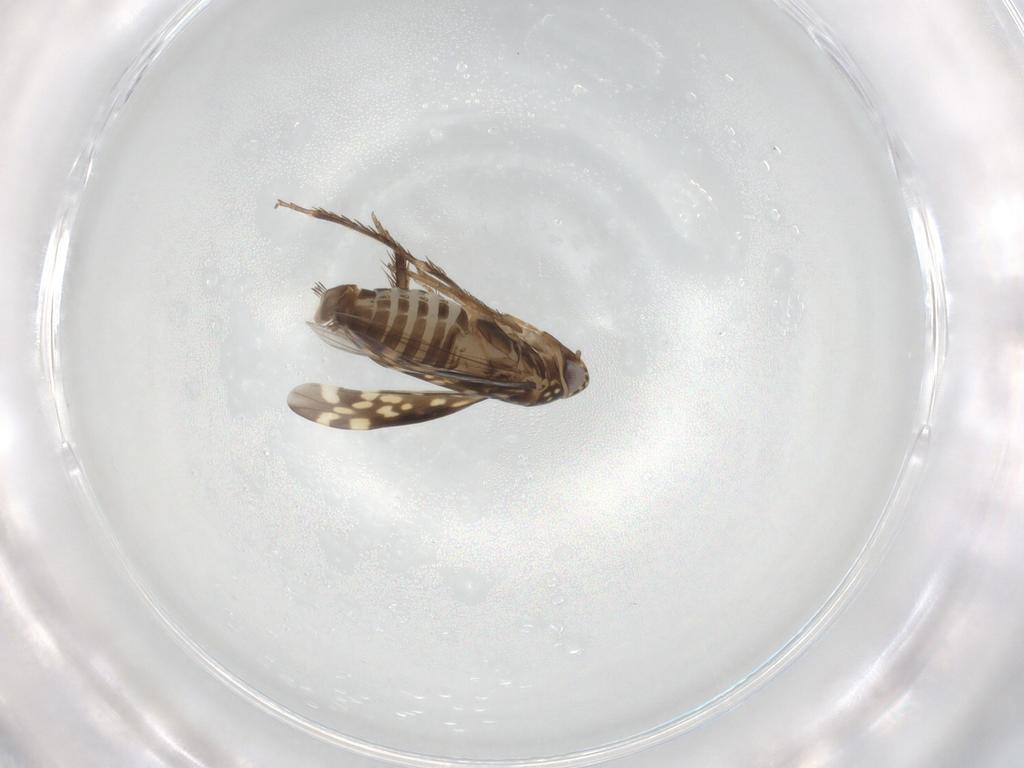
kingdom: Animalia
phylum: Arthropoda
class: Insecta
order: Hemiptera
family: Cicadellidae
